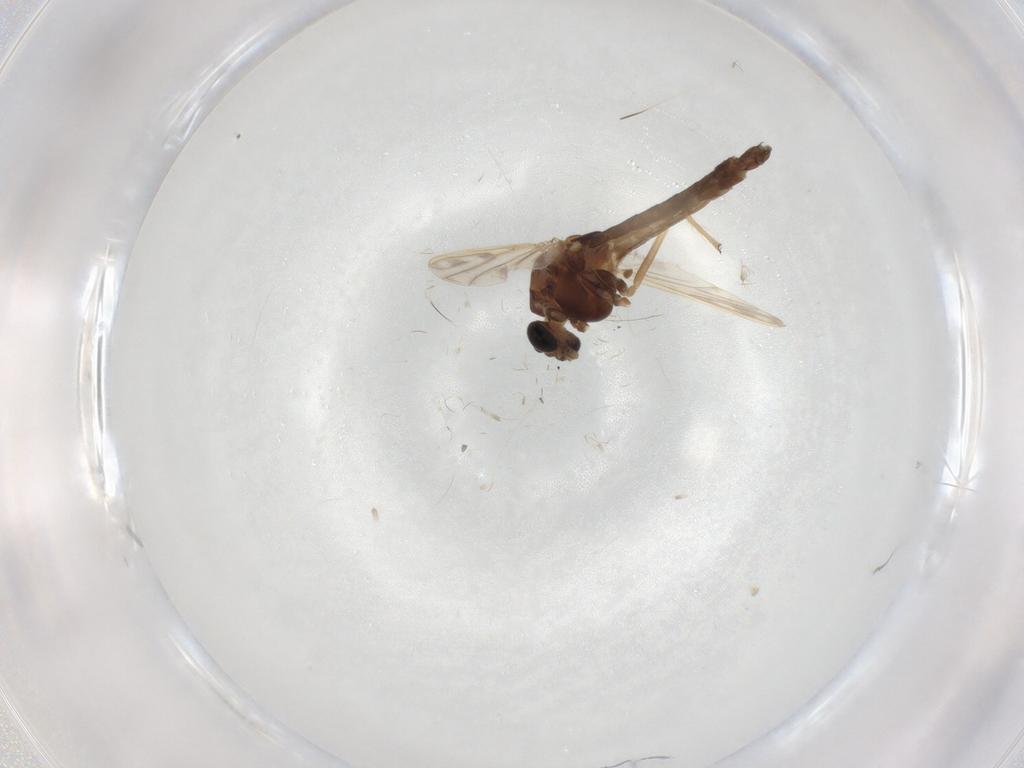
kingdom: Animalia
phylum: Arthropoda
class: Insecta
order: Diptera
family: Chironomidae
